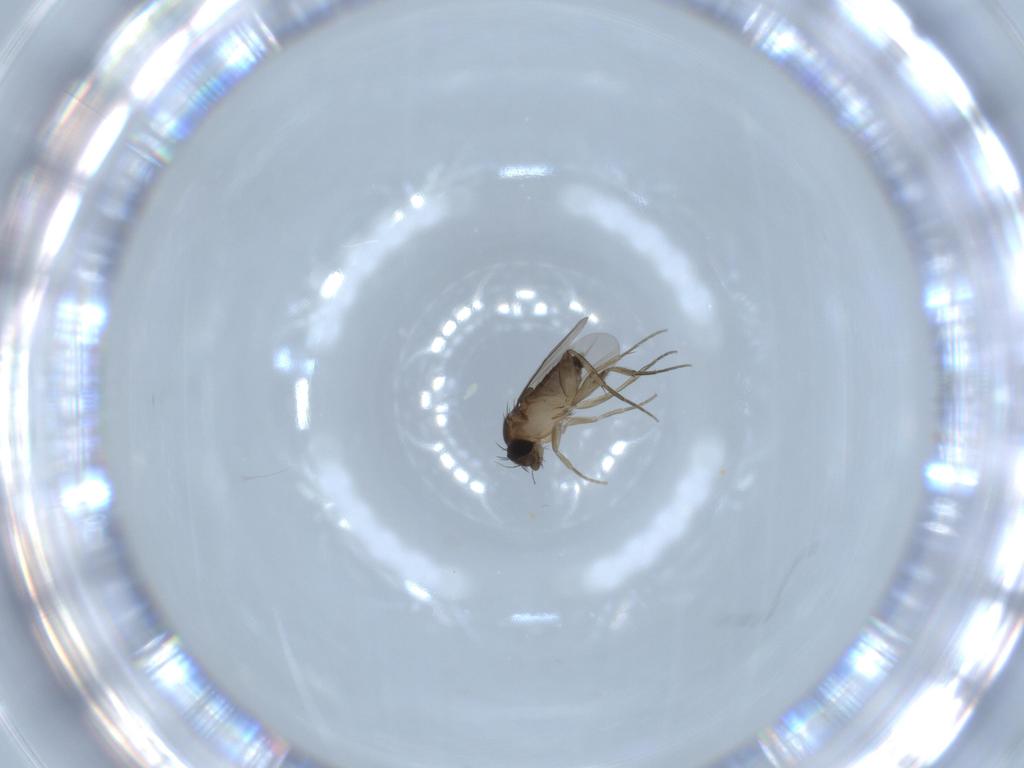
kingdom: Animalia
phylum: Arthropoda
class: Insecta
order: Diptera
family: Phoridae
